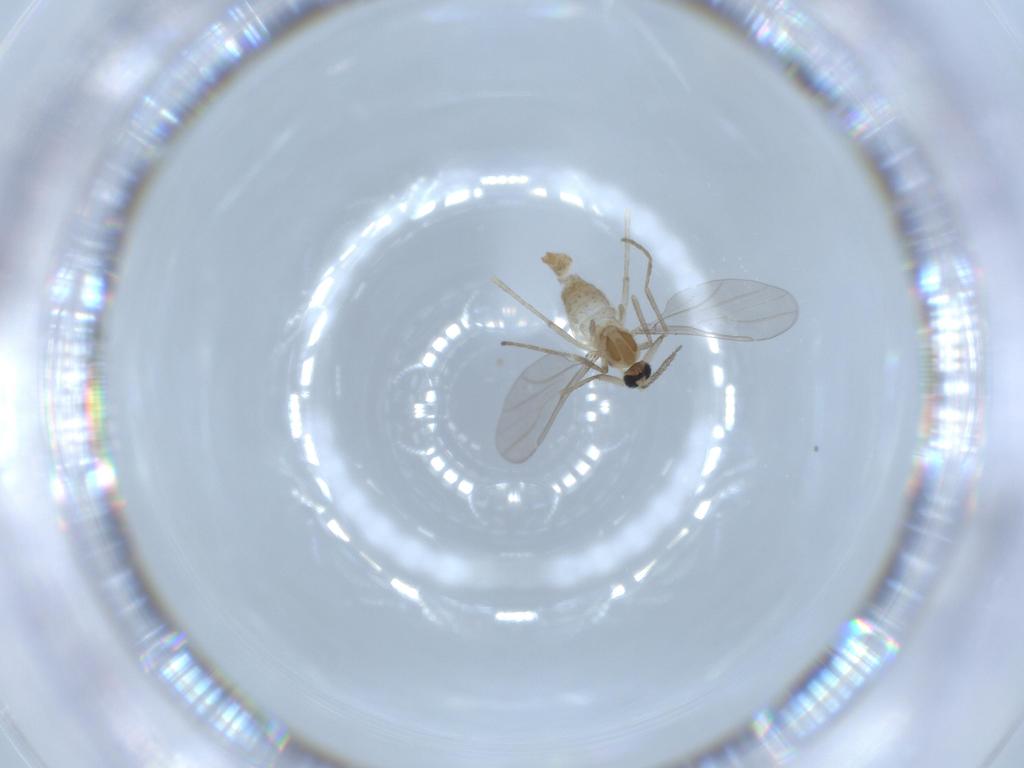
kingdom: Animalia
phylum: Arthropoda
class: Insecta
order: Diptera
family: Cecidomyiidae
